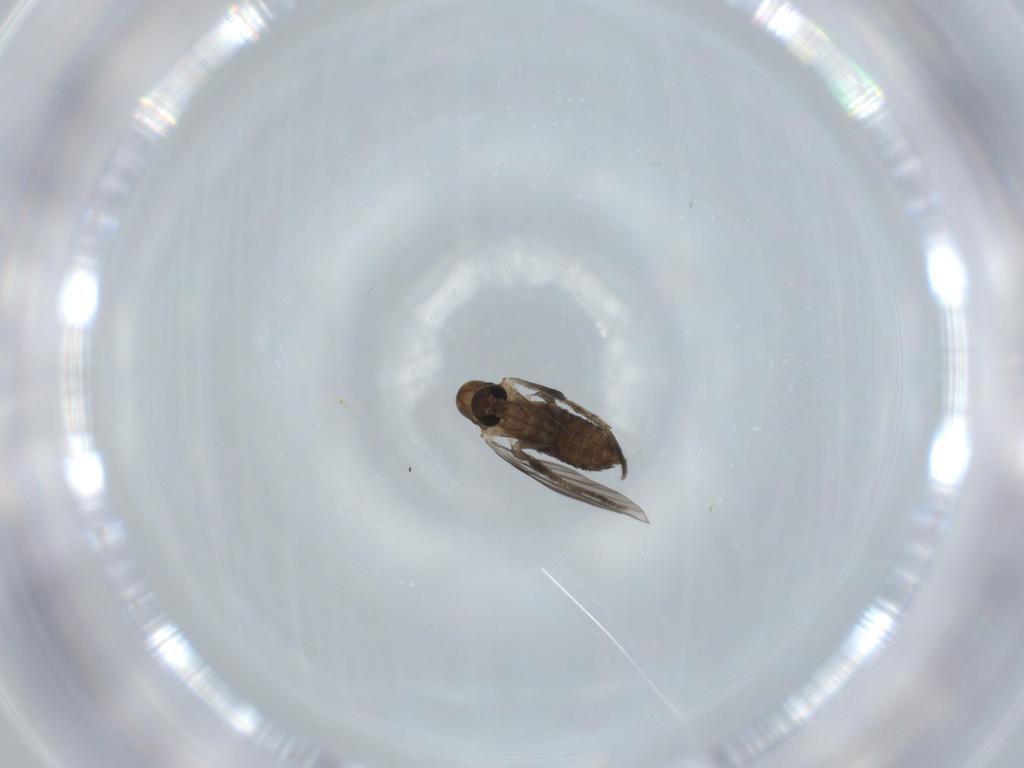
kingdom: Animalia
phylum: Arthropoda
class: Insecta
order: Diptera
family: Psychodidae
